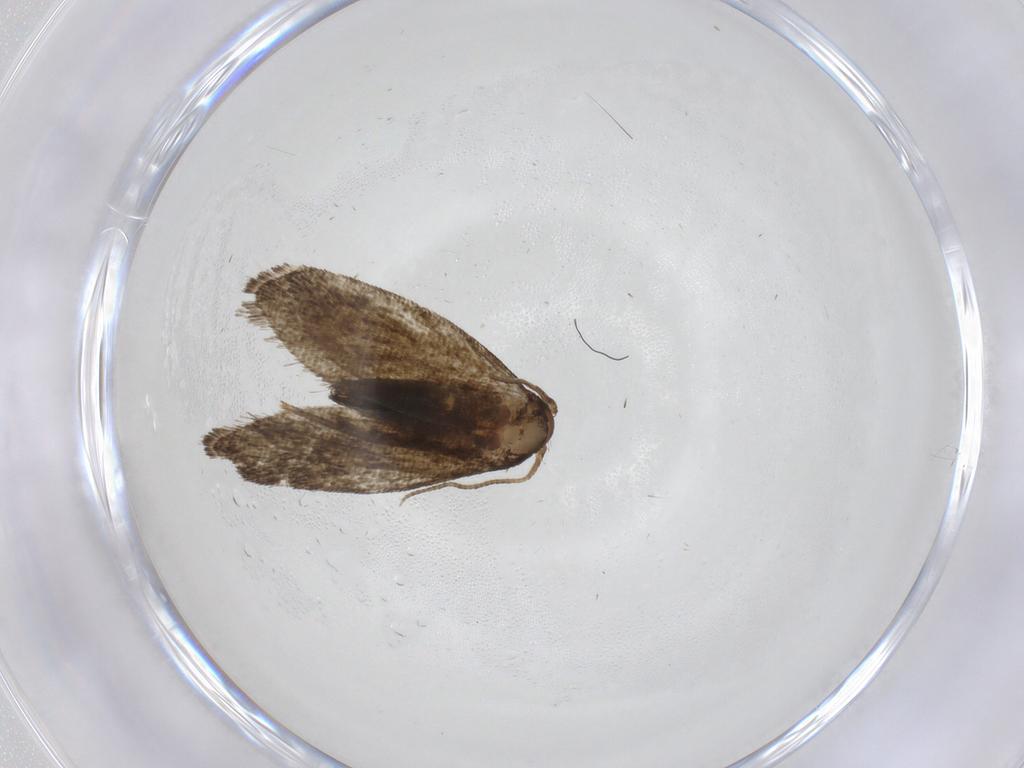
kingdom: Animalia
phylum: Arthropoda
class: Insecta
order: Lepidoptera
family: Crambidae
